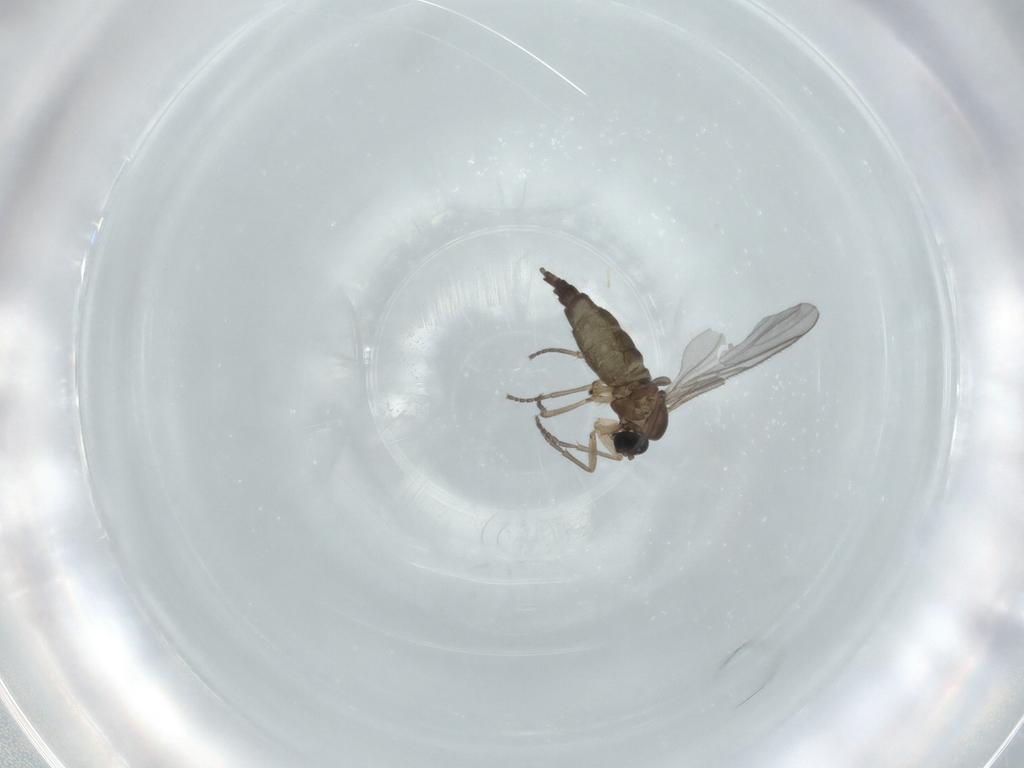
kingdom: Animalia
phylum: Arthropoda
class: Insecta
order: Diptera
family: Sciaridae
